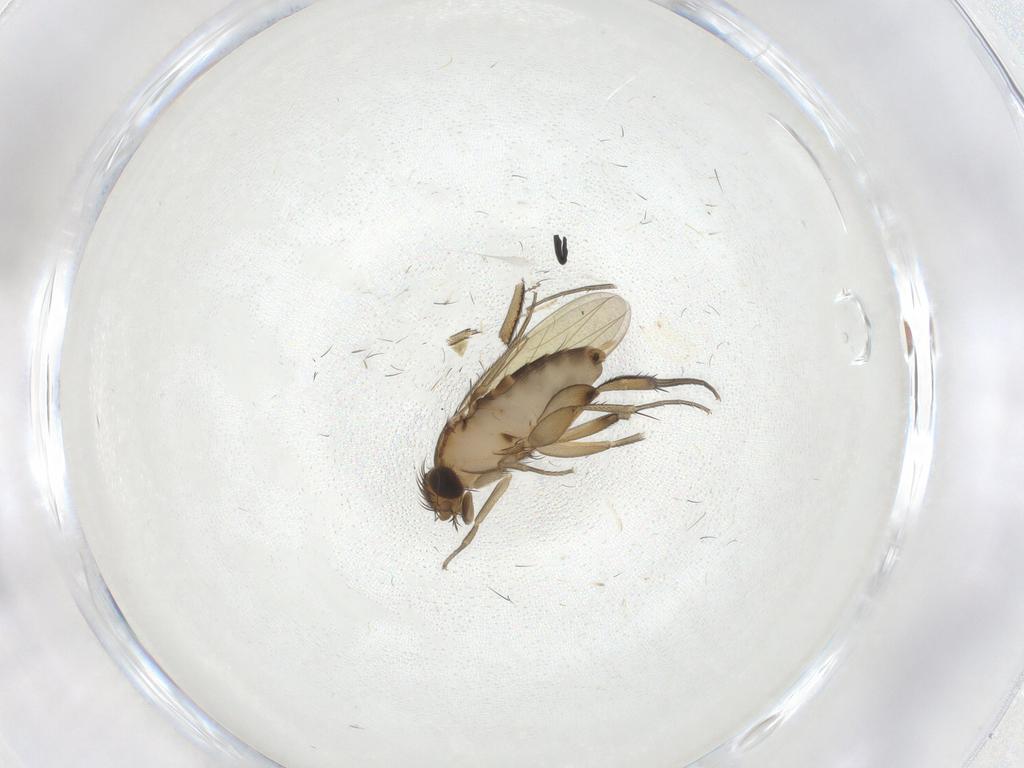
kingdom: Animalia
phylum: Arthropoda
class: Insecta
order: Diptera
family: Phoridae
